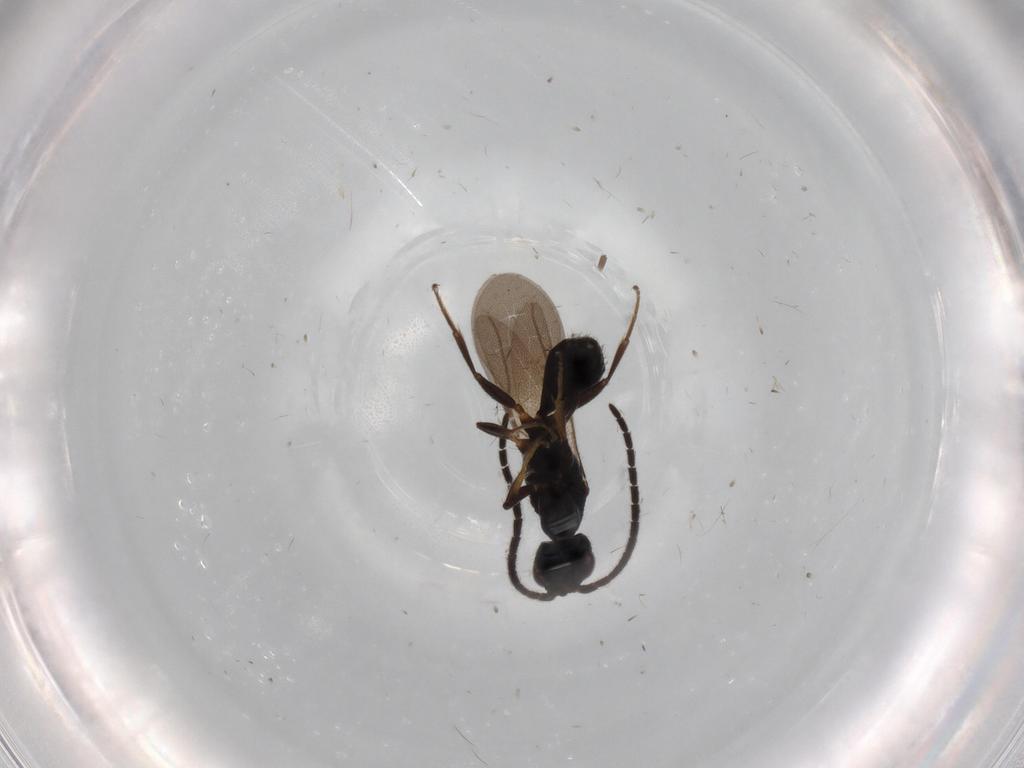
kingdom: Animalia
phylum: Arthropoda
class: Insecta
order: Hymenoptera
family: Bethylidae
